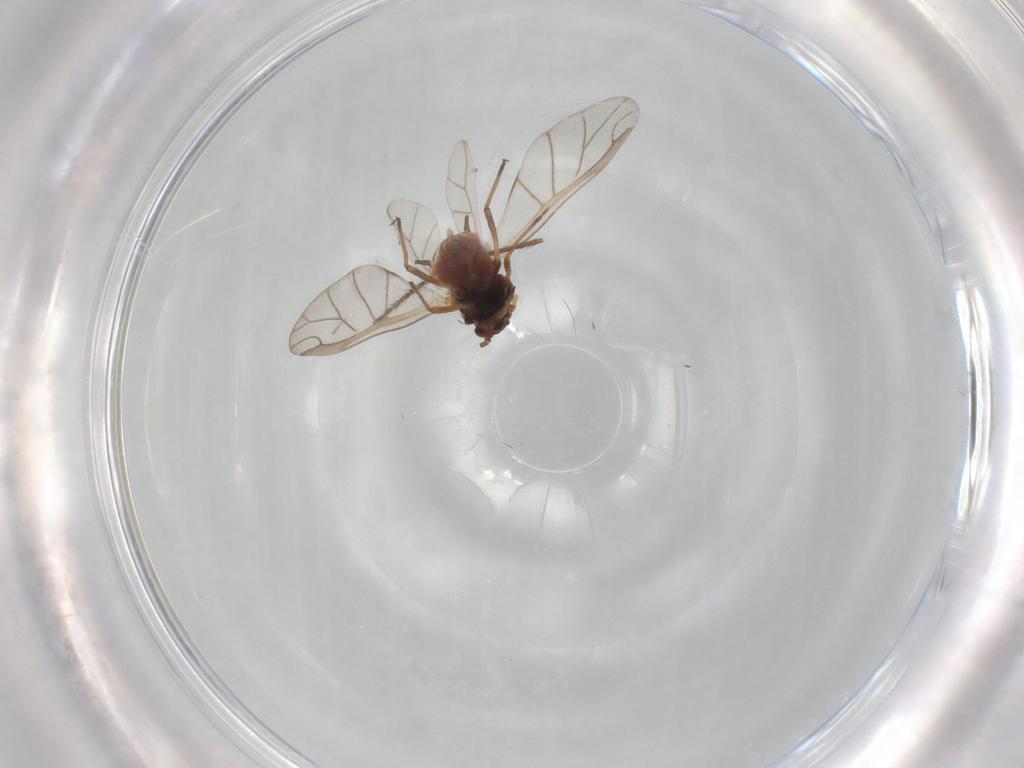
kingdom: Animalia
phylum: Arthropoda
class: Insecta
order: Hemiptera
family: Aphididae
